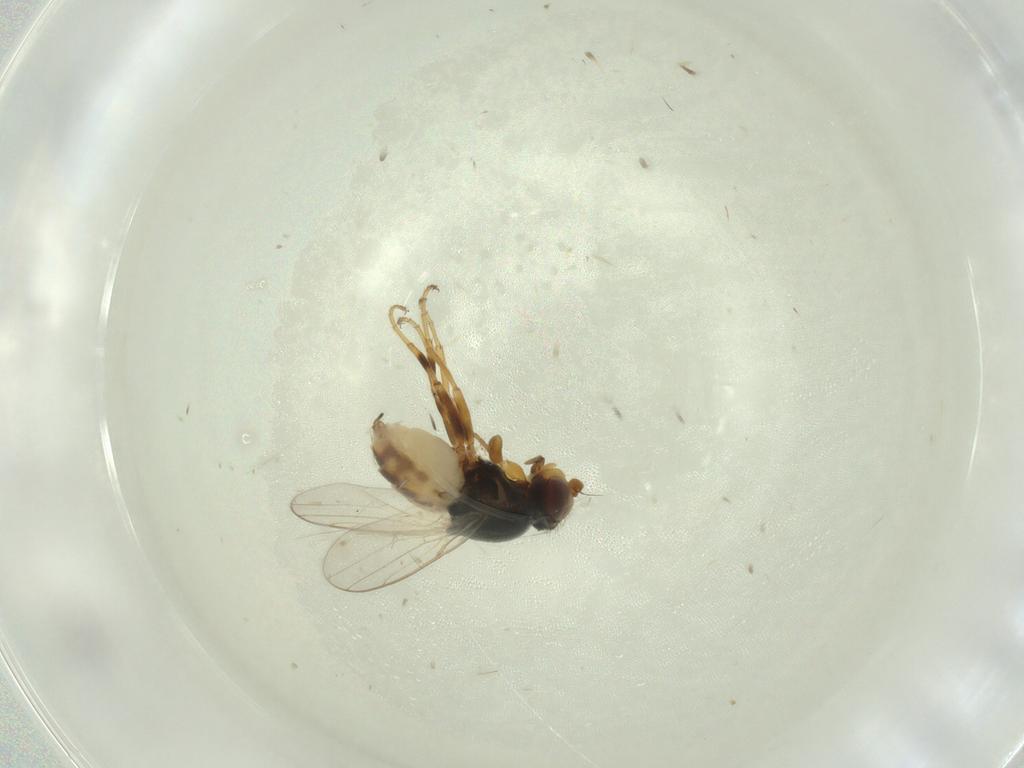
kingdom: Animalia
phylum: Arthropoda
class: Insecta
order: Diptera
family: Chloropidae
